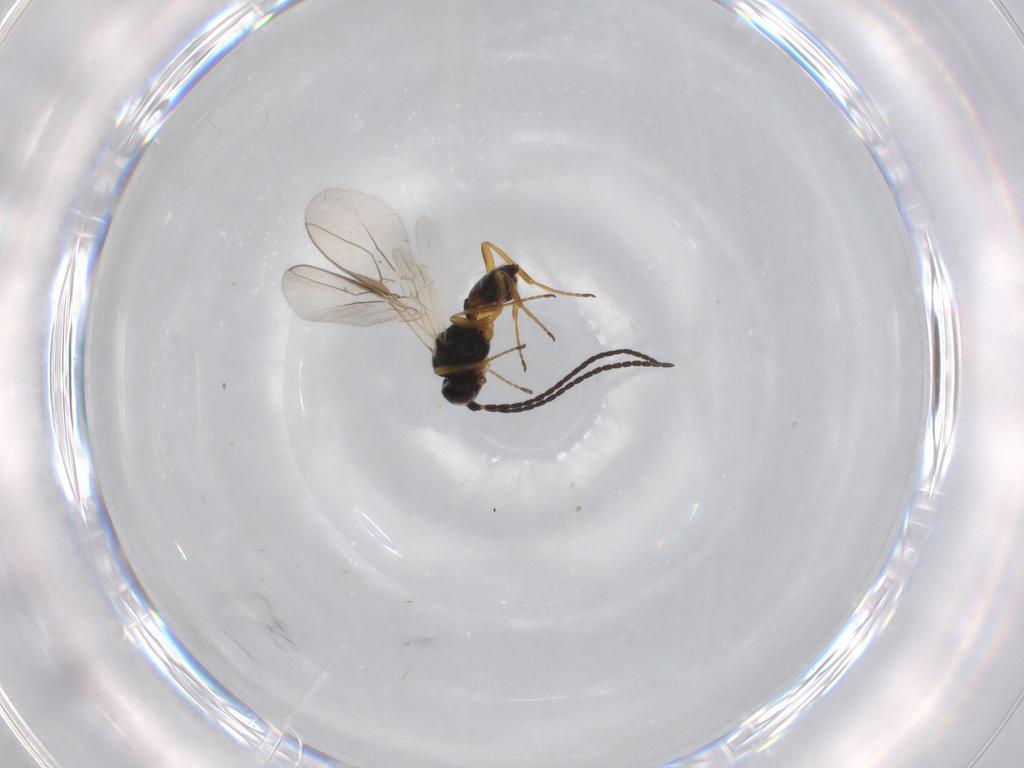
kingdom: Animalia
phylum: Arthropoda
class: Insecta
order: Hymenoptera
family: Braconidae
